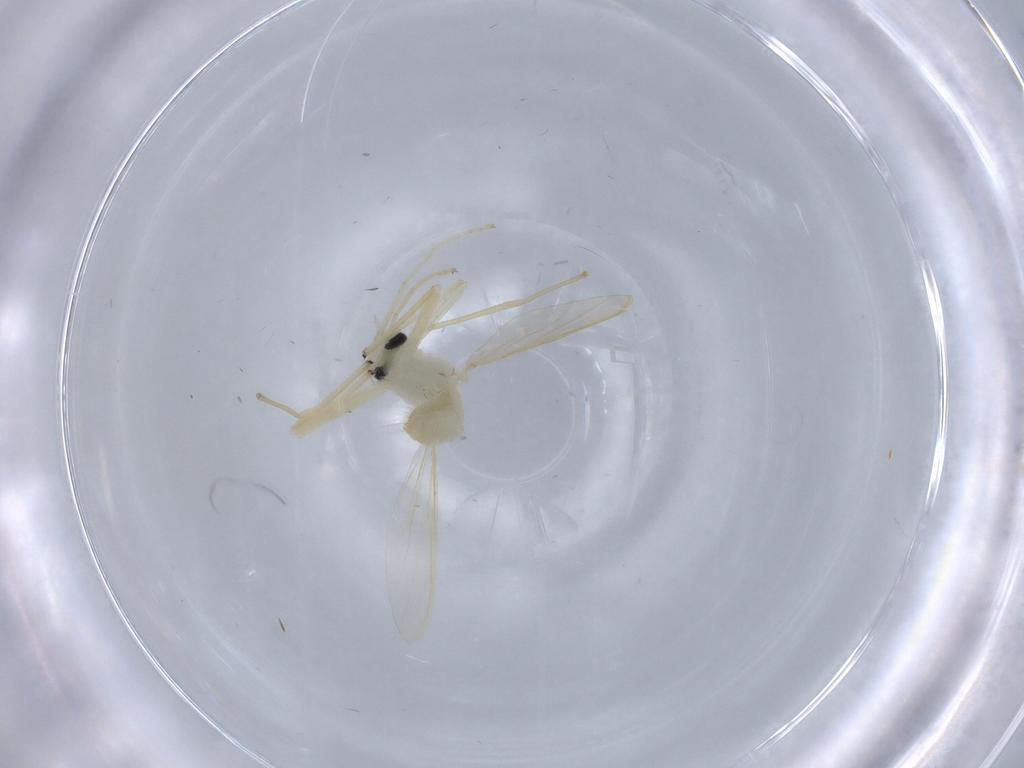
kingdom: Animalia
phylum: Arthropoda
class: Insecta
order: Diptera
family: Chironomidae
